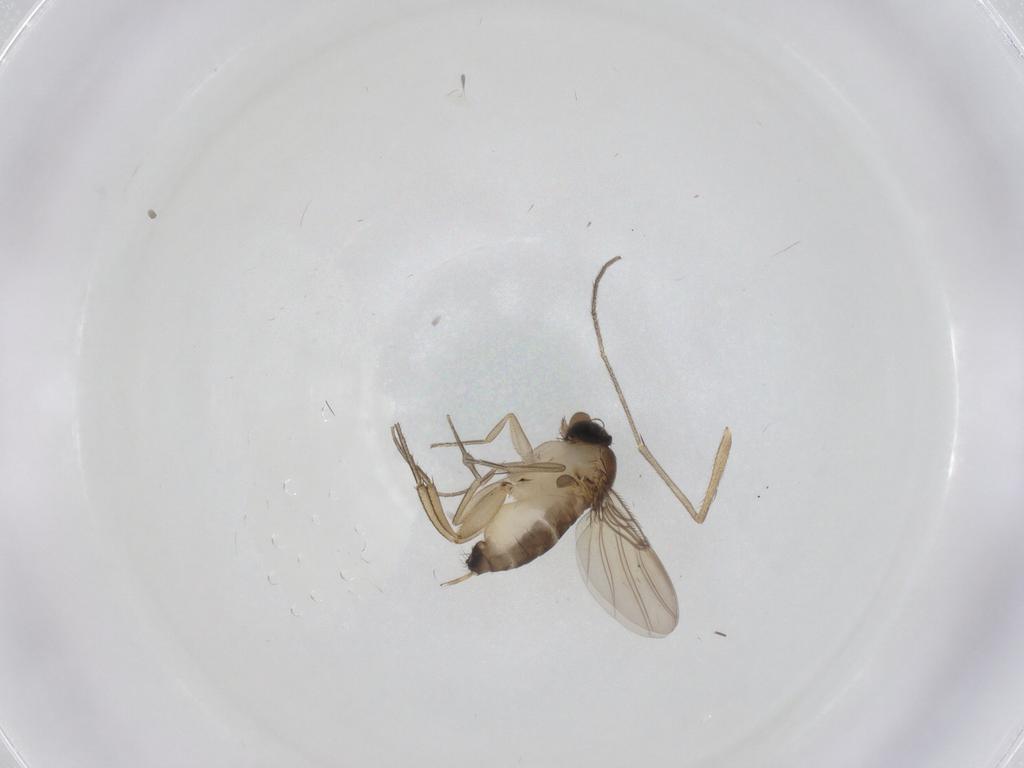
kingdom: Animalia
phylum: Arthropoda
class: Insecta
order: Diptera
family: Keroplatidae
